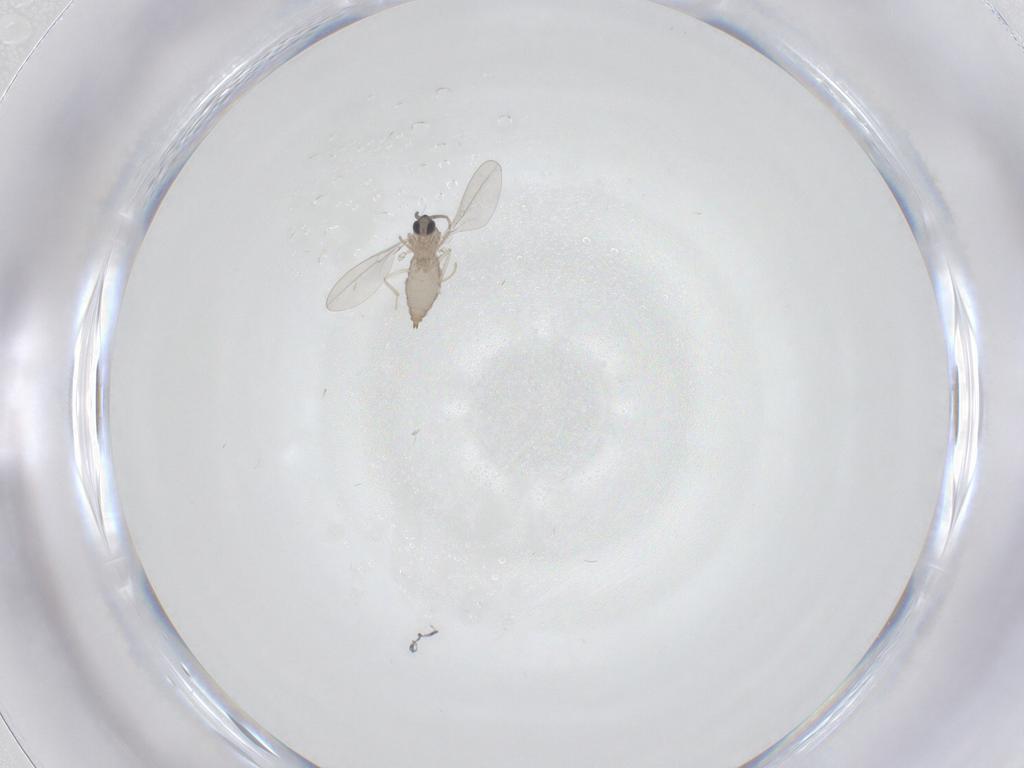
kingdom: Animalia
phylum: Arthropoda
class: Insecta
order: Diptera
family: Cecidomyiidae
